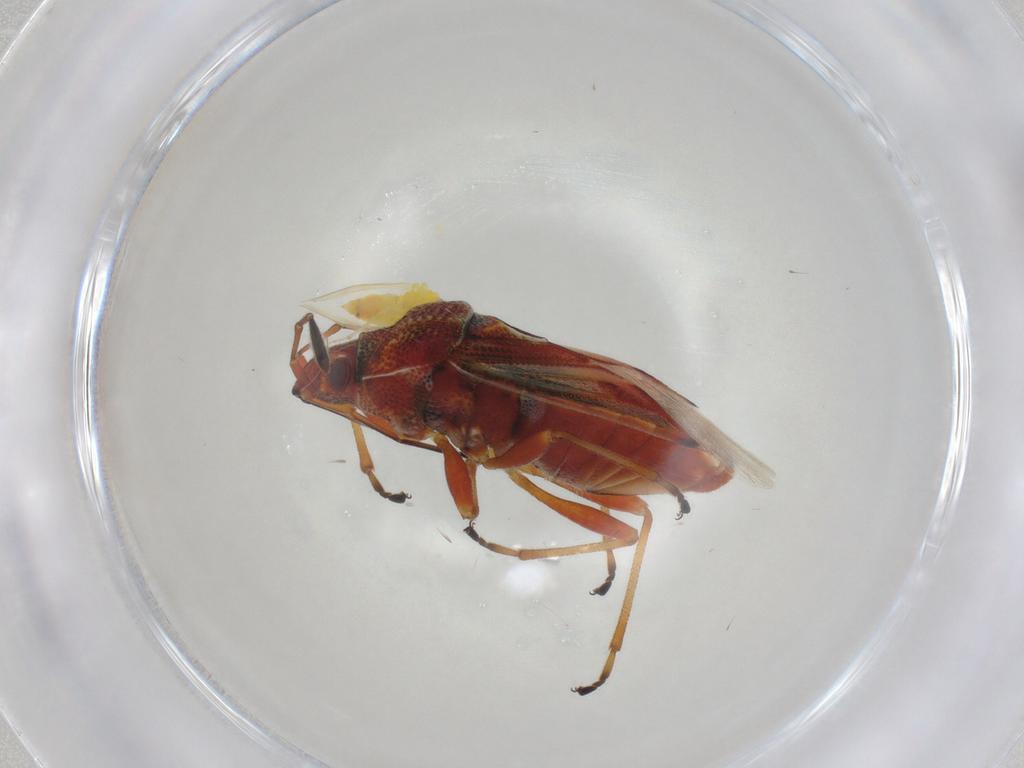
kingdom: Animalia
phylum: Arthropoda
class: Insecta
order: Hemiptera
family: Lygaeidae
